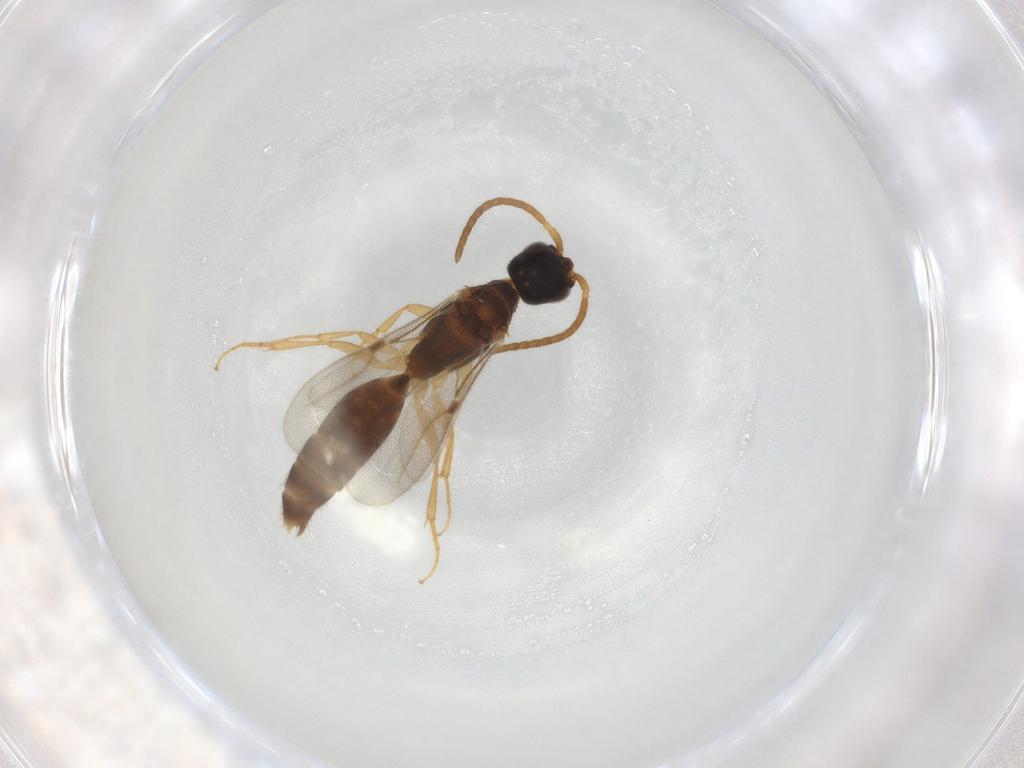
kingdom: Animalia
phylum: Arthropoda
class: Insecta
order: Hymenoptera
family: Bethylidae
